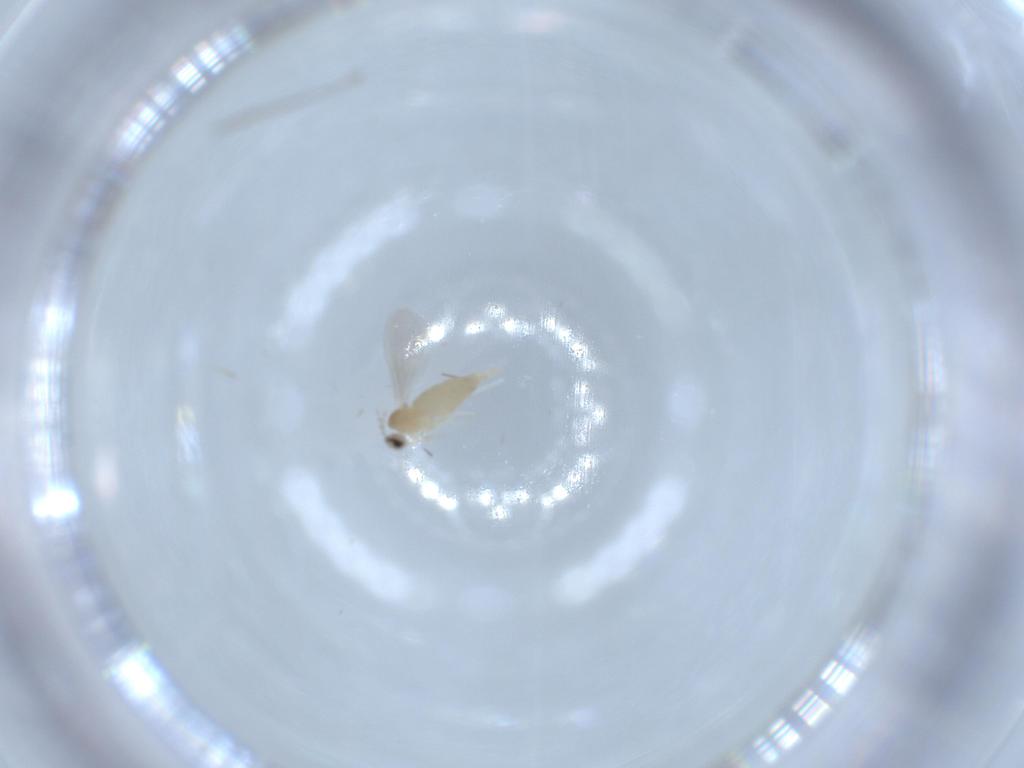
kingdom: Animalia
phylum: Arthropoda
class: Insecta
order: Diptera
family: Cecidomyiidae
